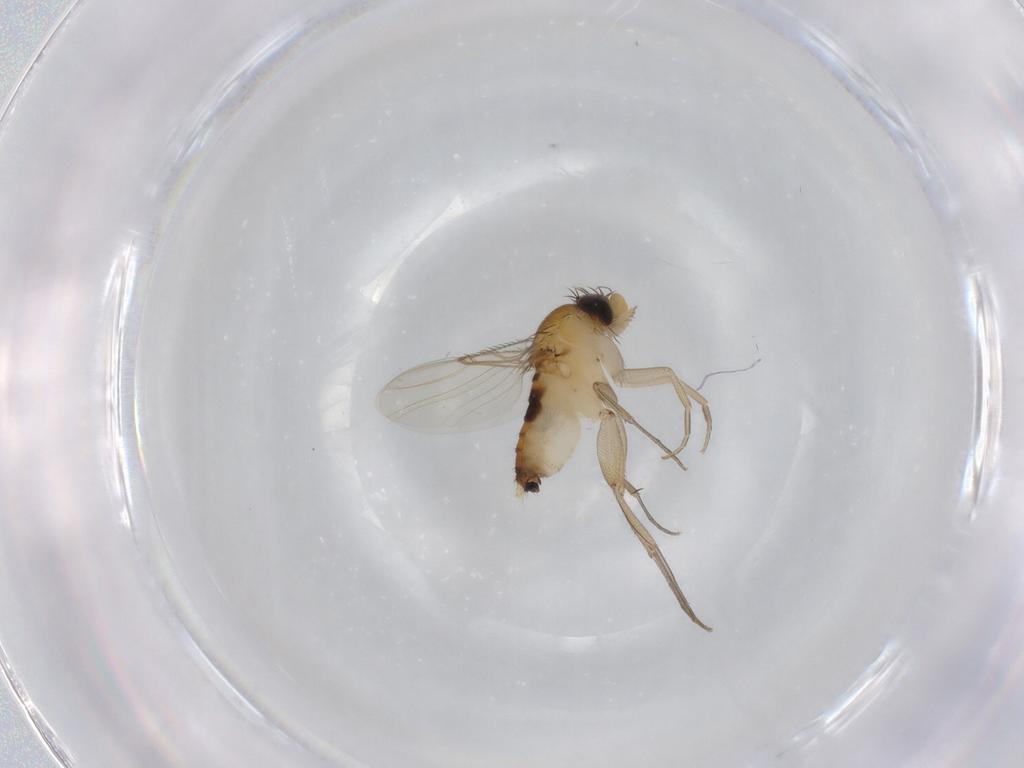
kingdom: Animalia
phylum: Arthropoda
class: Insecta
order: Diptera
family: Phoridae
